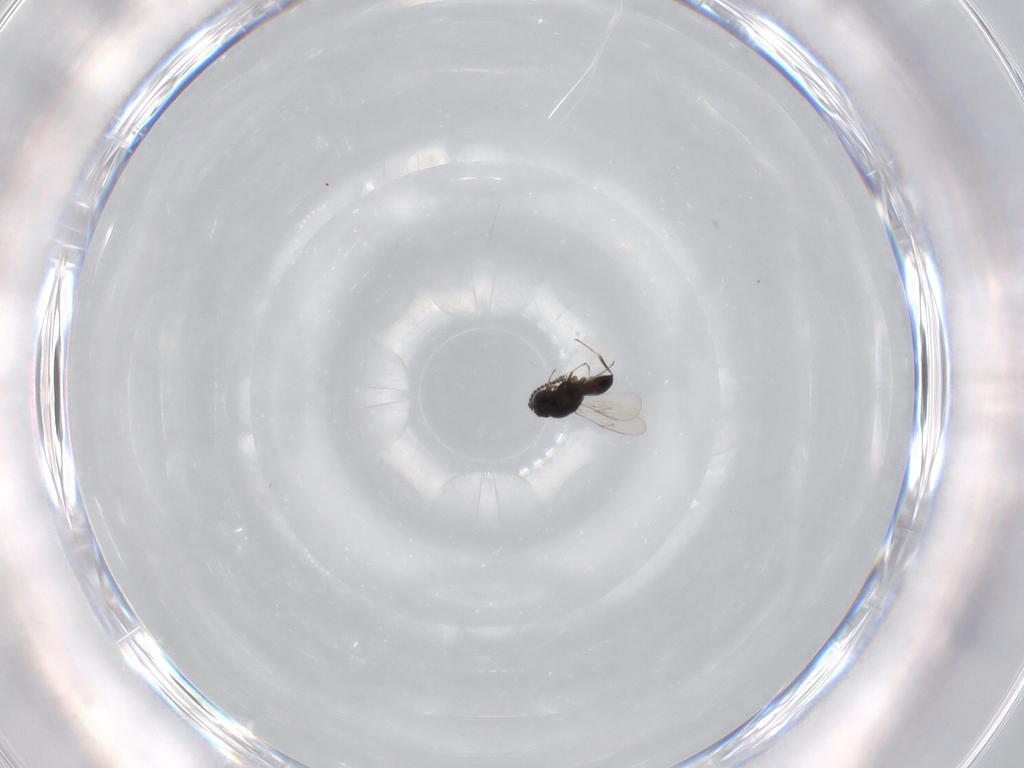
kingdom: Animalia
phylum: Arthropoda
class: Insecta
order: Hymenoptera
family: Scelionidae
